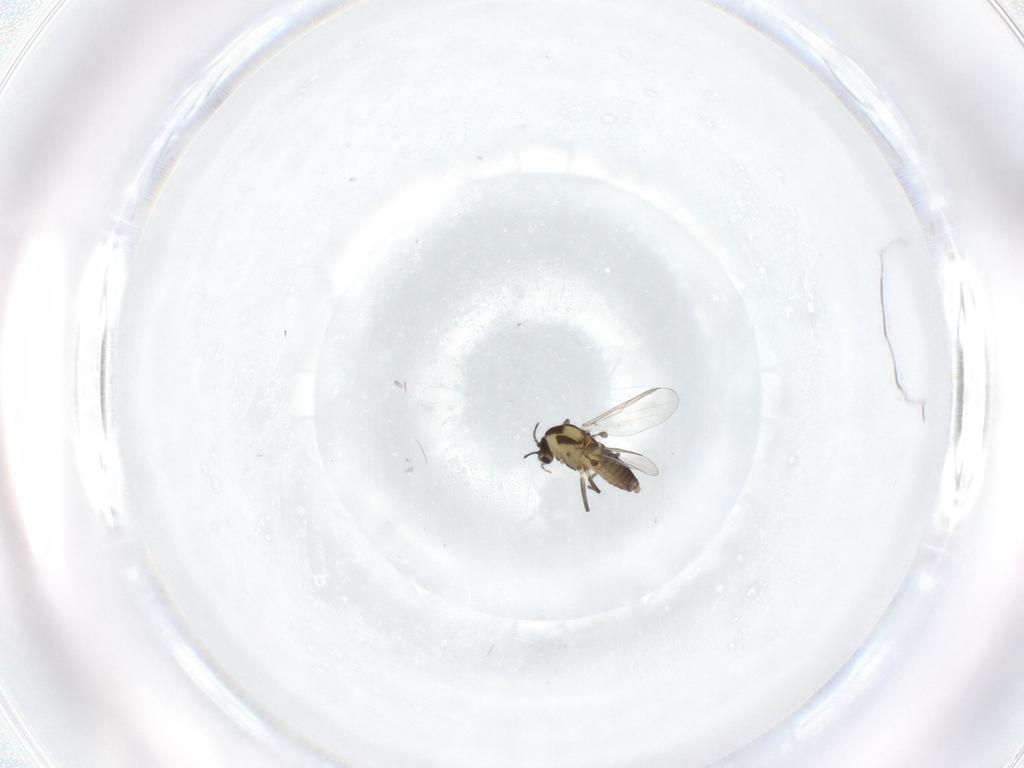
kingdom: Animalia
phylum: Arthropoda
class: Insecta
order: Diptera
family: Chironomidae
